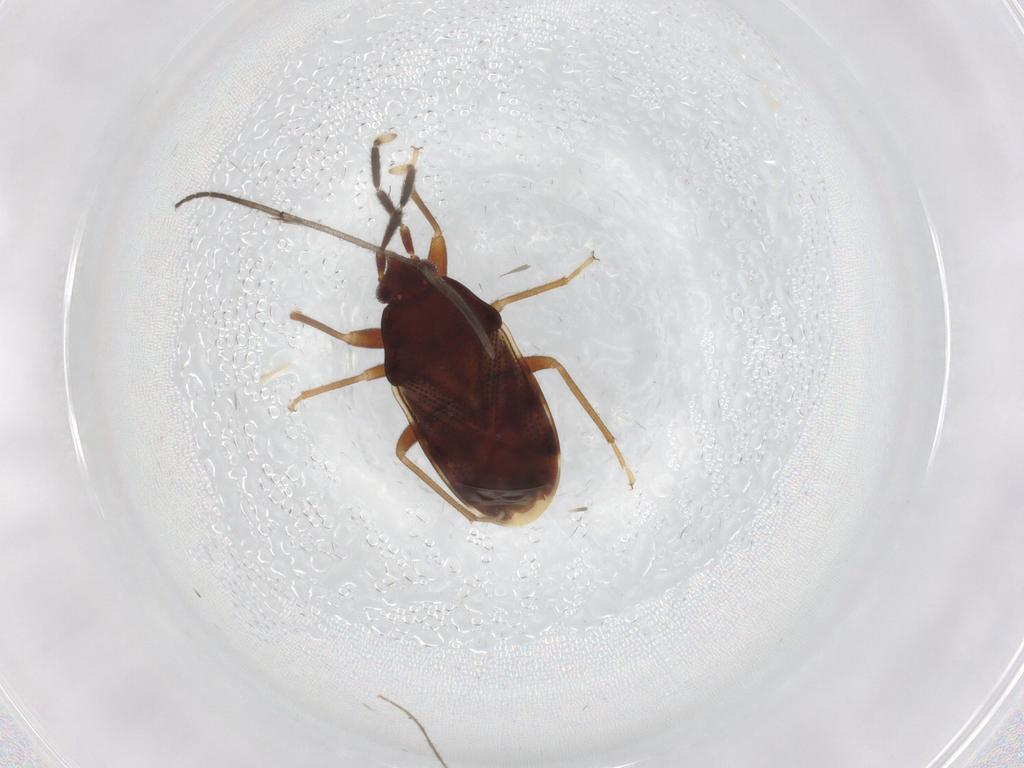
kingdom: Animalia
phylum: Arthropoda
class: Insecta
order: Hemiptera
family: Rhyparochromidae
